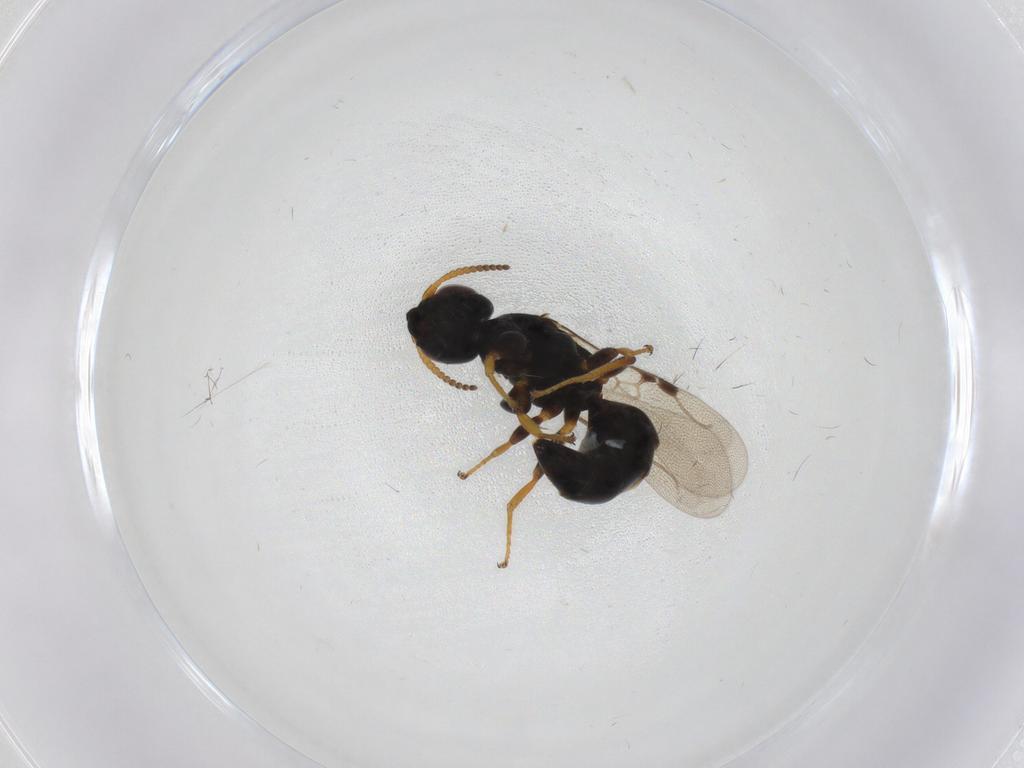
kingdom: Animalia
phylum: Arthropoda
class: Insecta
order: Hymenoptera
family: Bethylidae
